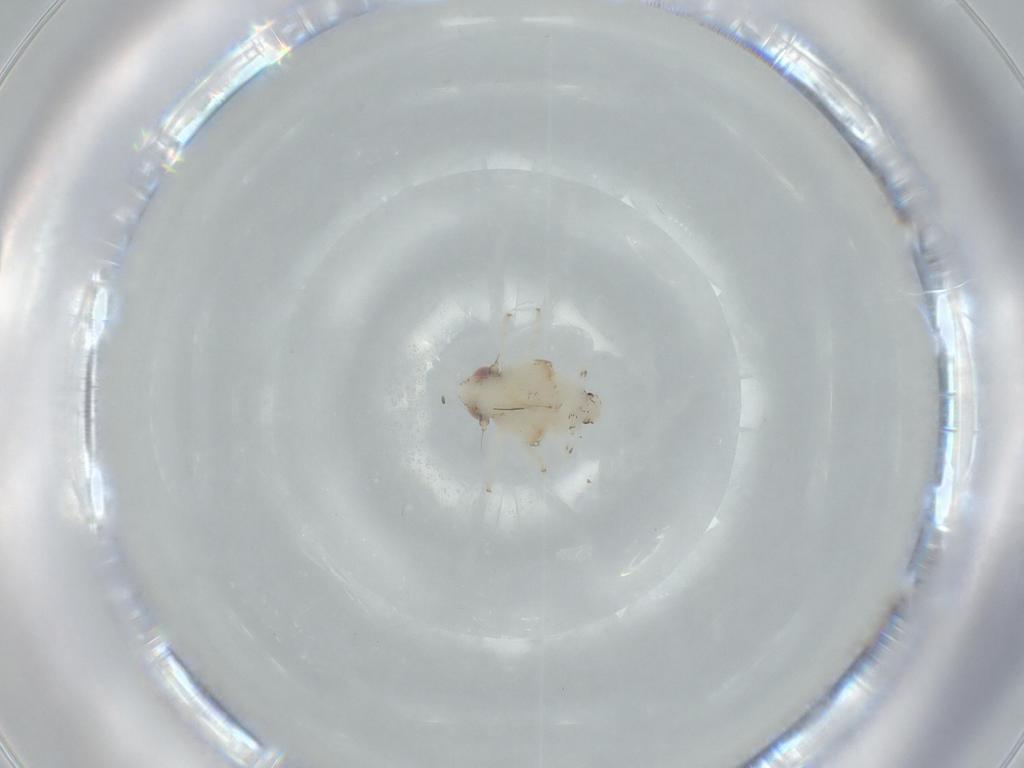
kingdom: Animalia
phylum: Arthropoda
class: Insecta
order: Hemiptera
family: Nogodinidae
